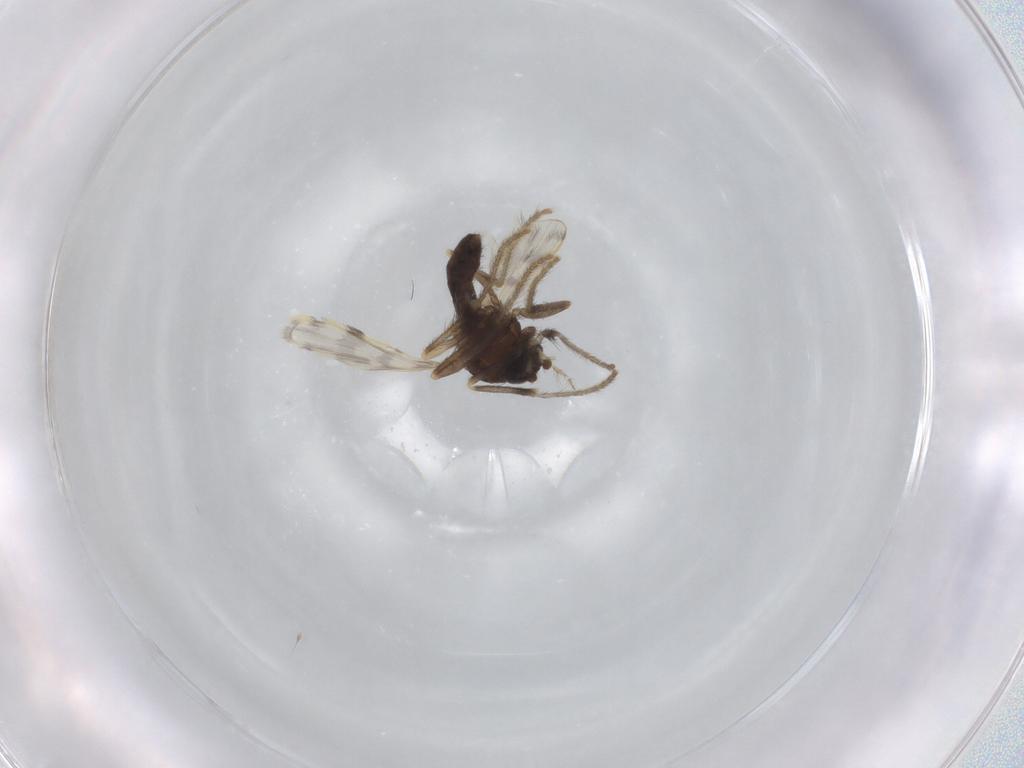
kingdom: Animalia
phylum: Arthropoda
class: Insecta
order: Diptera
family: Corethrellidae
